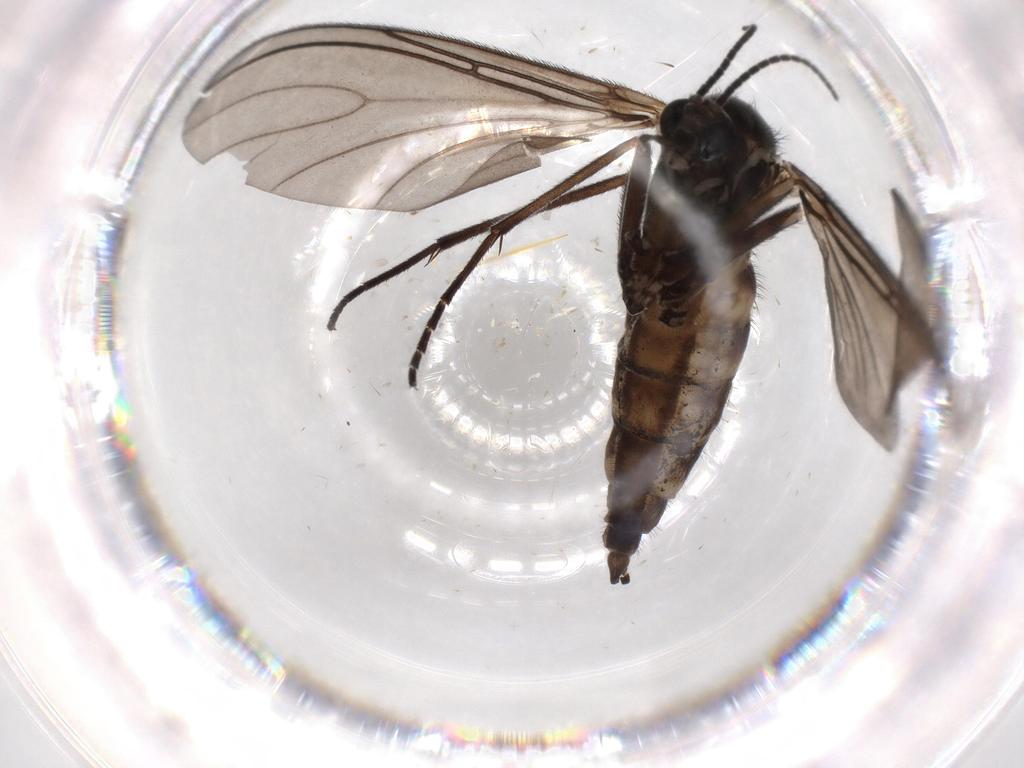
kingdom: Animalia
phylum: Arthropoda
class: Insecta
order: Diptera
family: Sciaridae
